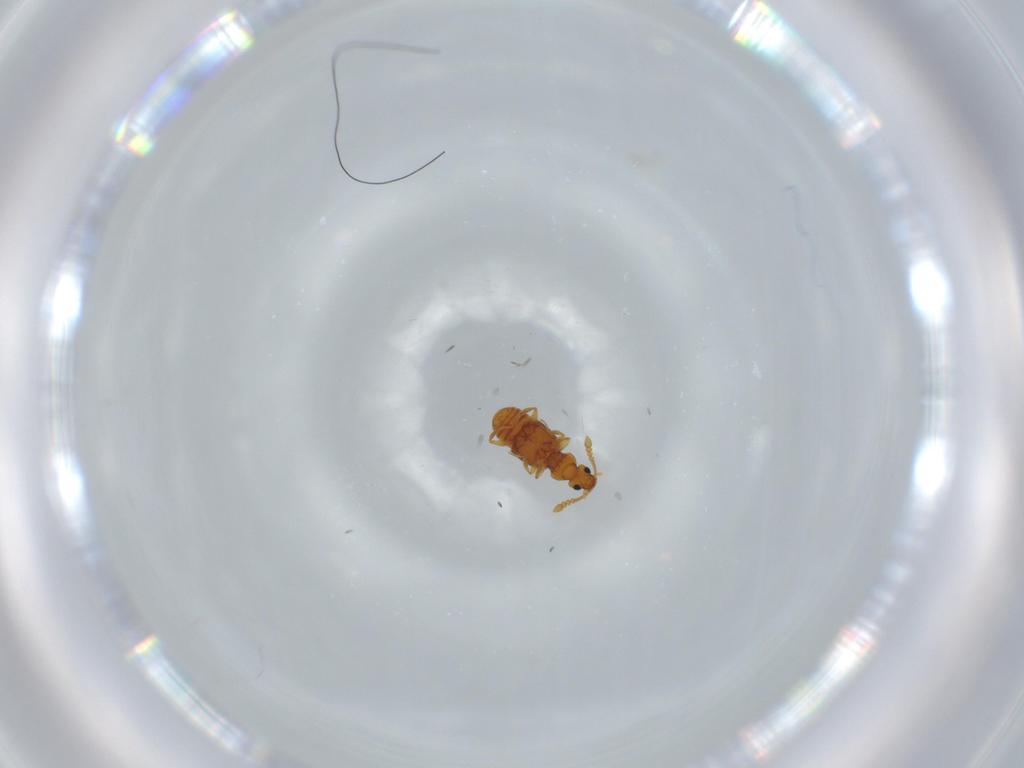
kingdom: Animalia
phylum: Arthropoda
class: Insecta
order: Coleoptera
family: Staphylinidae
